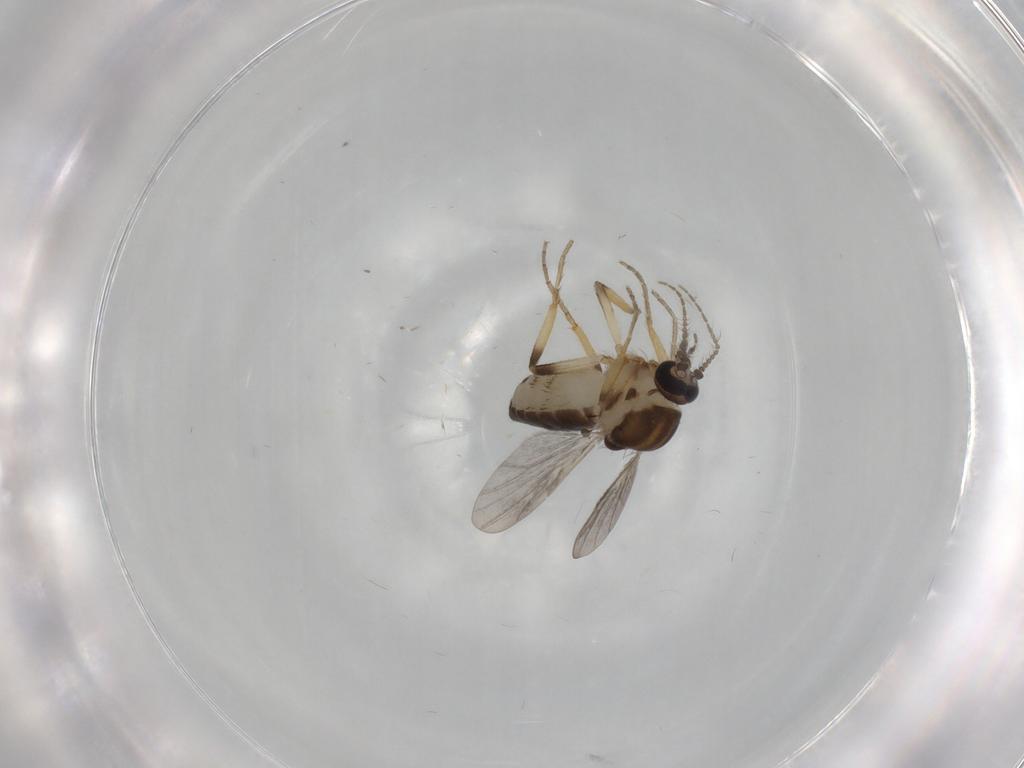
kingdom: Animalia
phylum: Arthropoda
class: Insecta
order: Diptera
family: Ceratopogonidae
